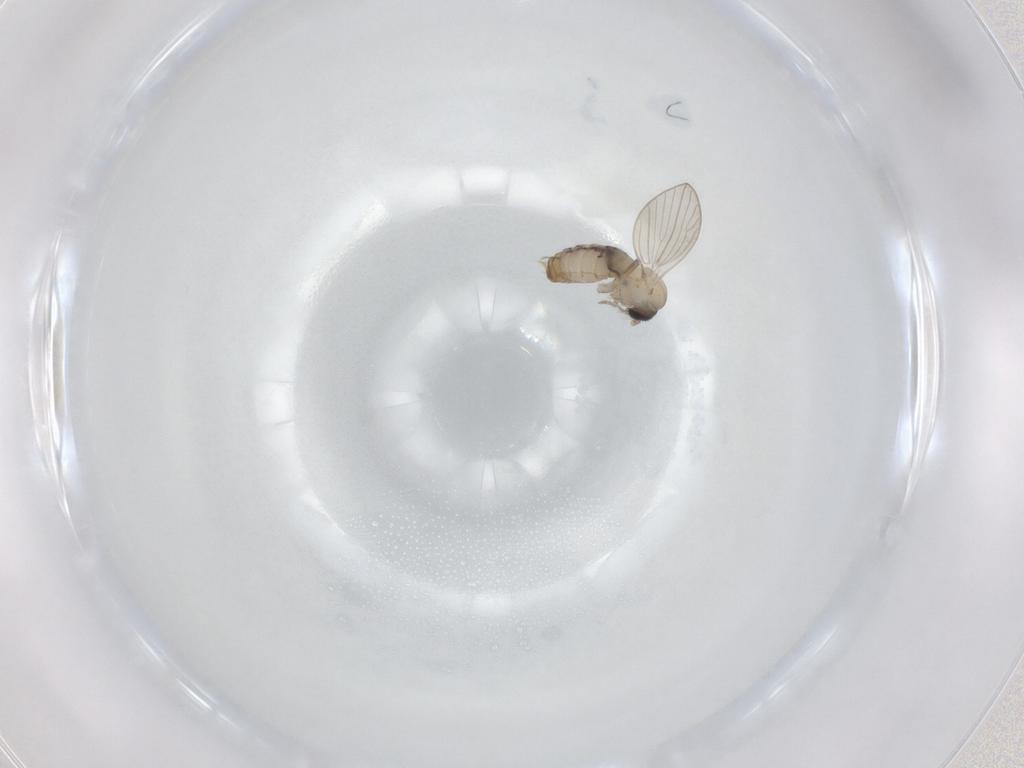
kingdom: Animalia
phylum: Arthropoda
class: Insecta
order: Diptera
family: Psychodidae
